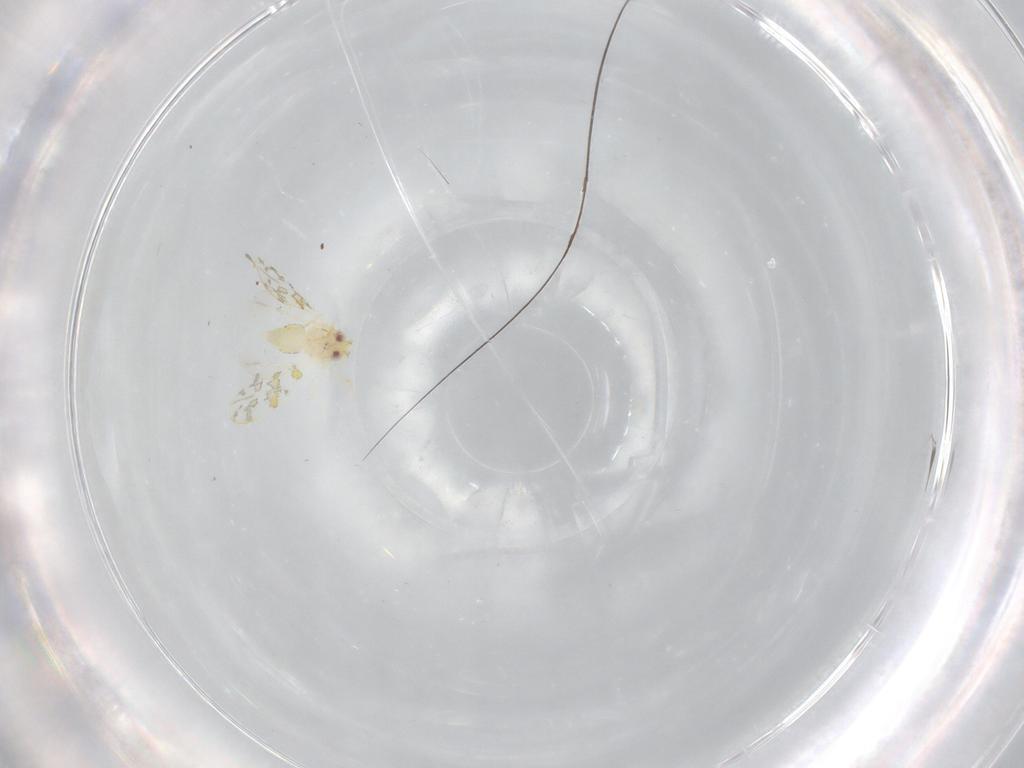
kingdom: Animalia
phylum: Arthropoda
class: Insecta
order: Hemiptera
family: Aleyrodidae
